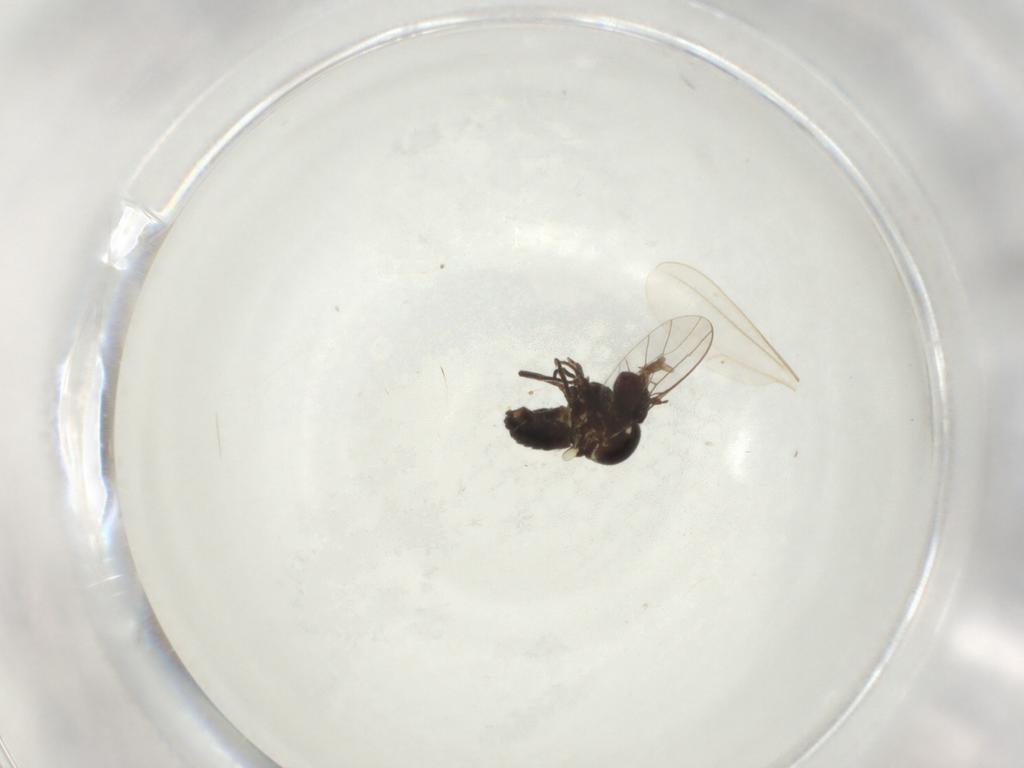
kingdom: Animalia
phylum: Arthropoda
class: Insecta
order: Diptera
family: Anthomyiidae
